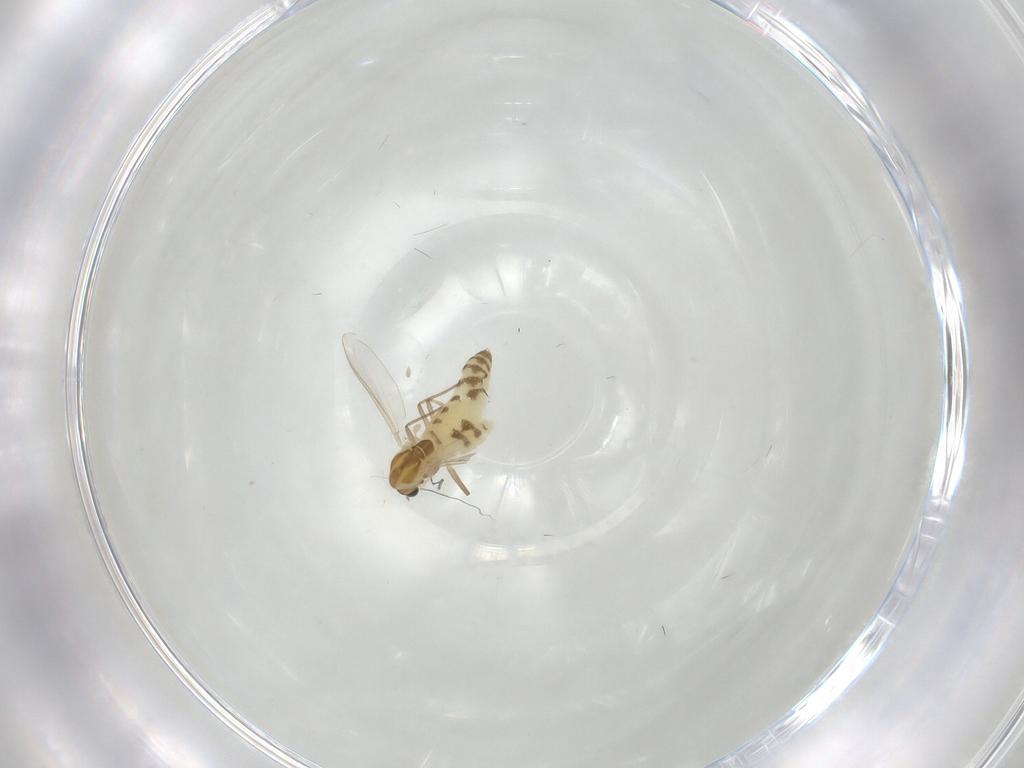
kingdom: Animalia
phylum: Arthropoda
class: Insecta
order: Diptera
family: Chironomidae
